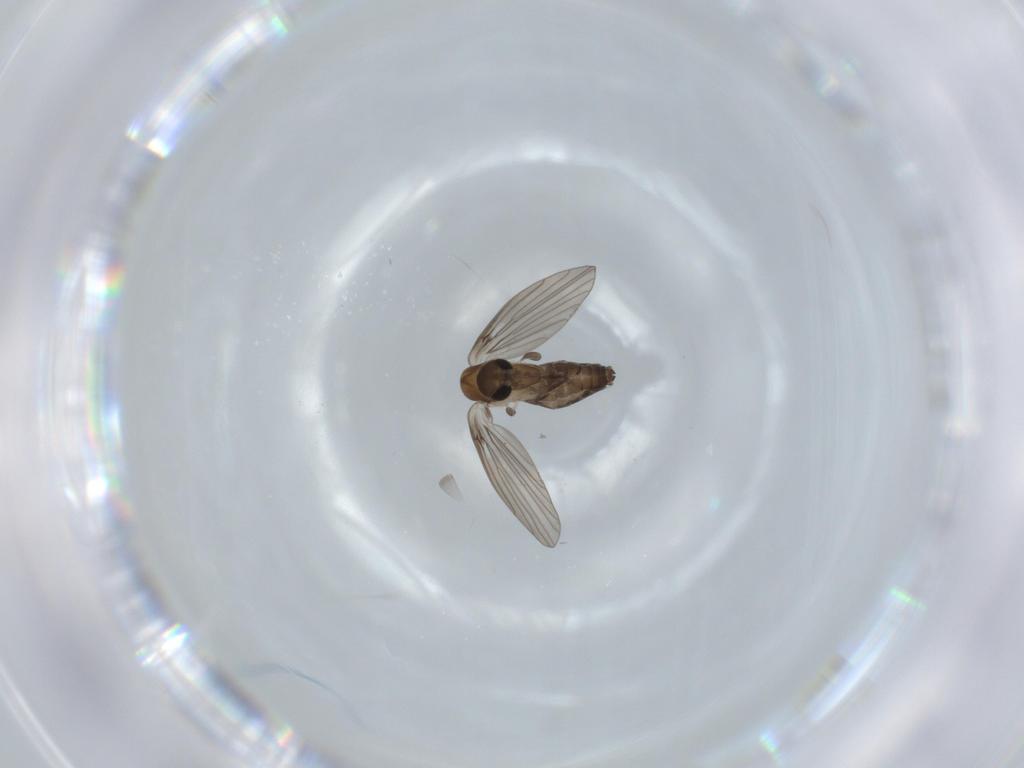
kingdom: Animalia
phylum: Arthropoda
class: Insecta
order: Diptera
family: Psychodidae
